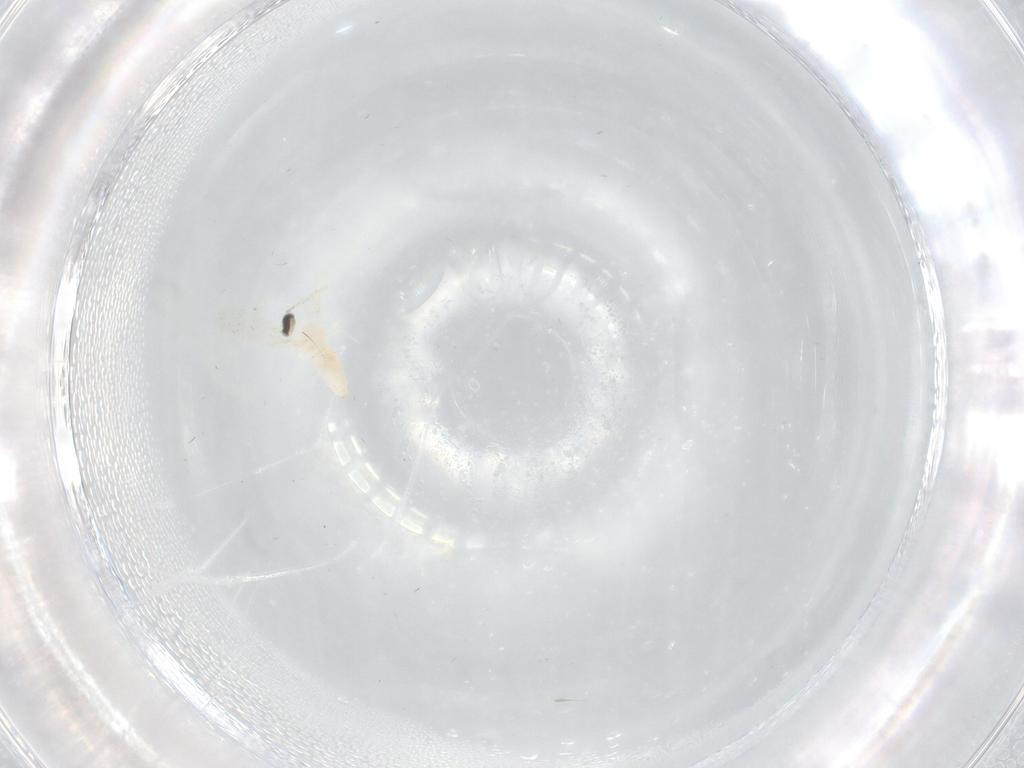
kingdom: Animalia
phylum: Arthropoda
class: Insecta
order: Diptera
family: Cecidomyiidae
